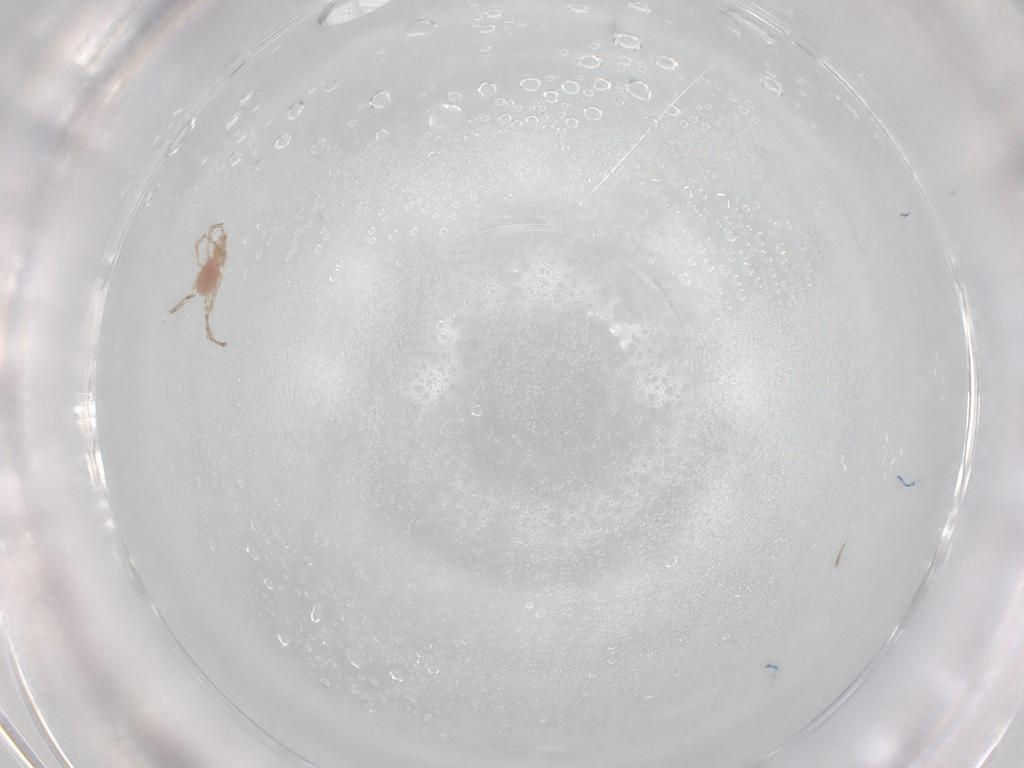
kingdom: Animalia
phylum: Arthropoda
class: Arachnida
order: Trombidiformes
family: Erythraeidae
